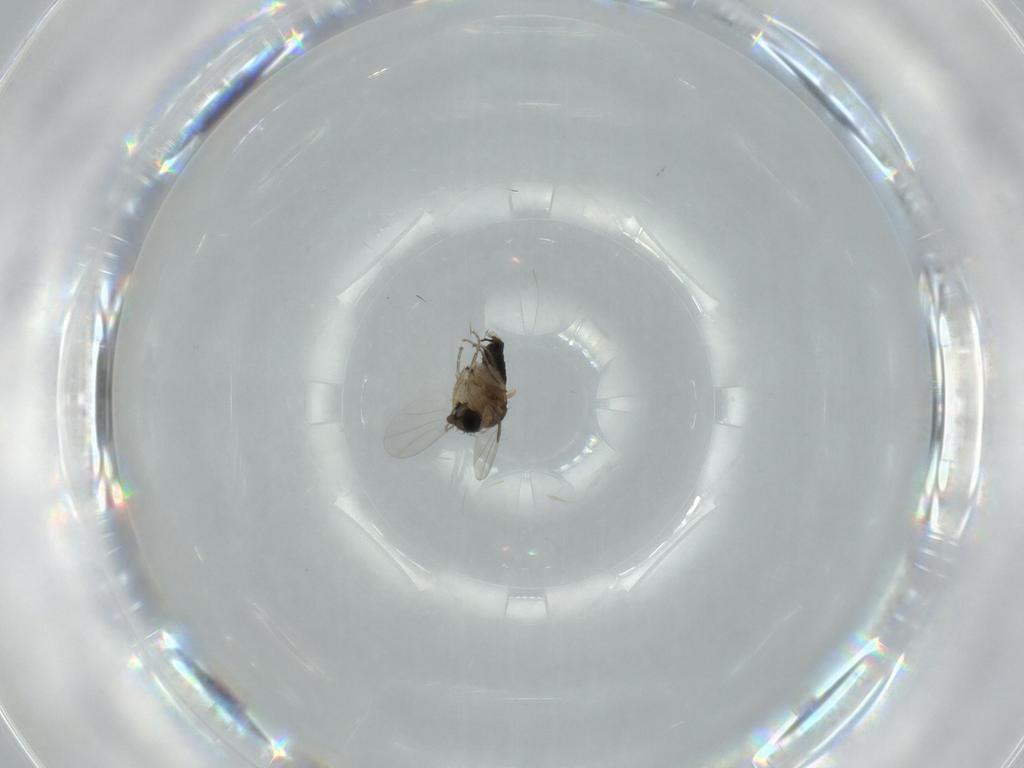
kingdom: Animalia
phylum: Arthropoda
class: Insecta
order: Diptera
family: Phoridae
